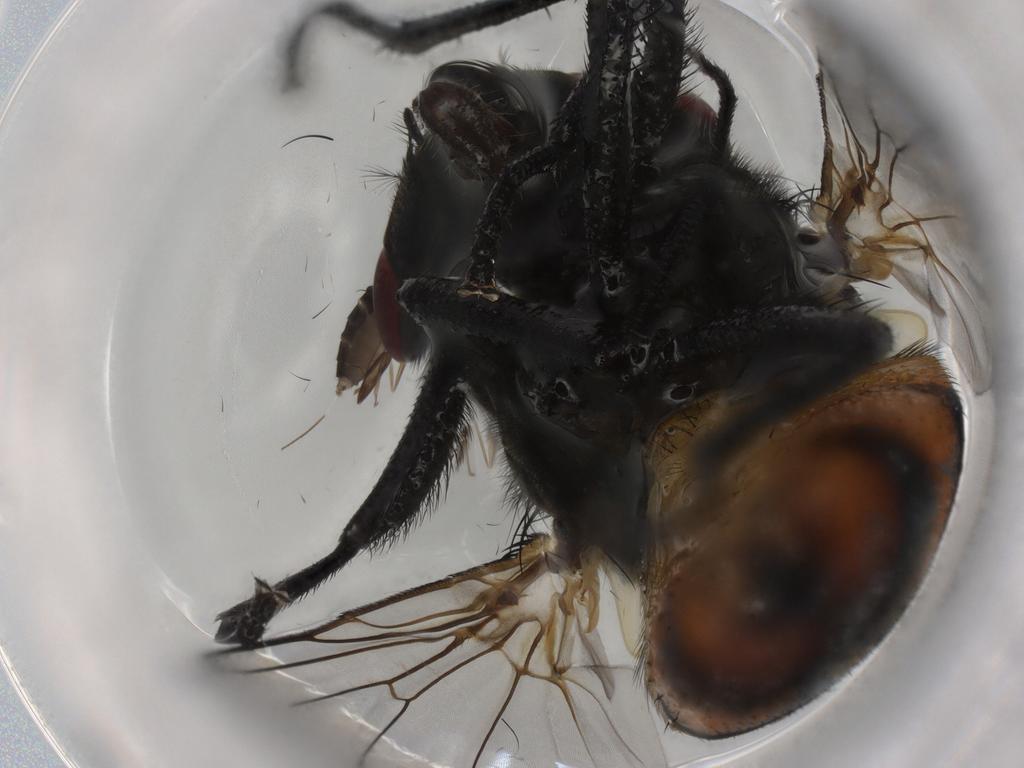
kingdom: Animalia
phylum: Arthropoda
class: Insecta
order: Diptera
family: Muscidae
